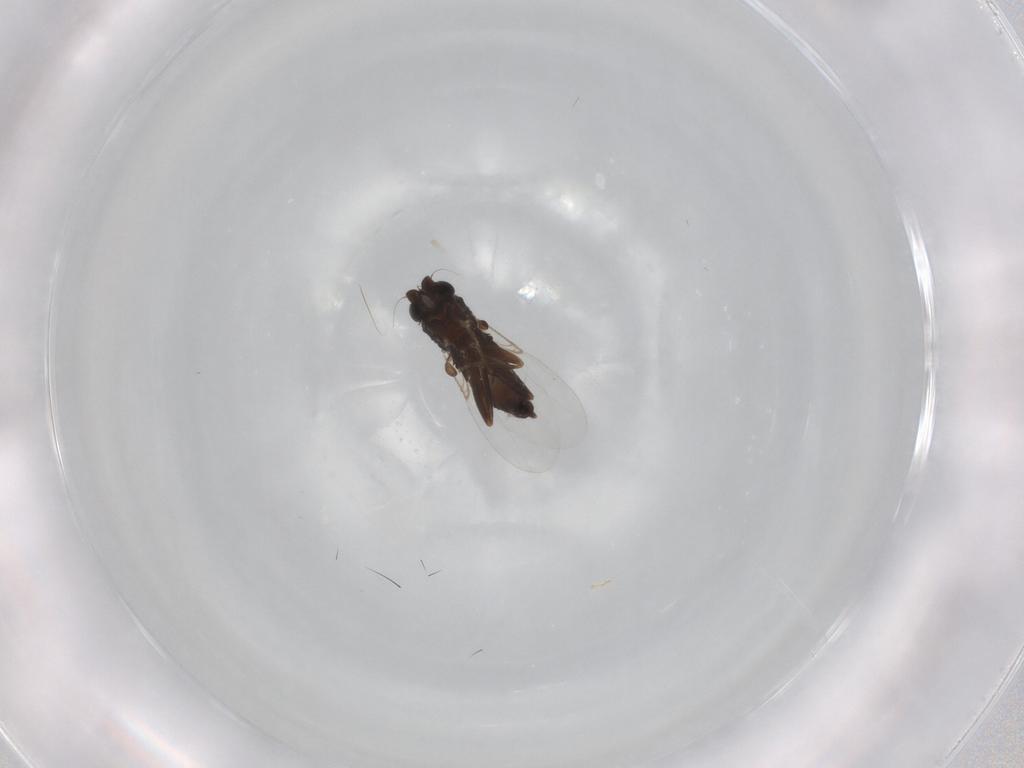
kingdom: Animalia
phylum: Arthropoda
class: Insecta
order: Diptera
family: Phoridae
